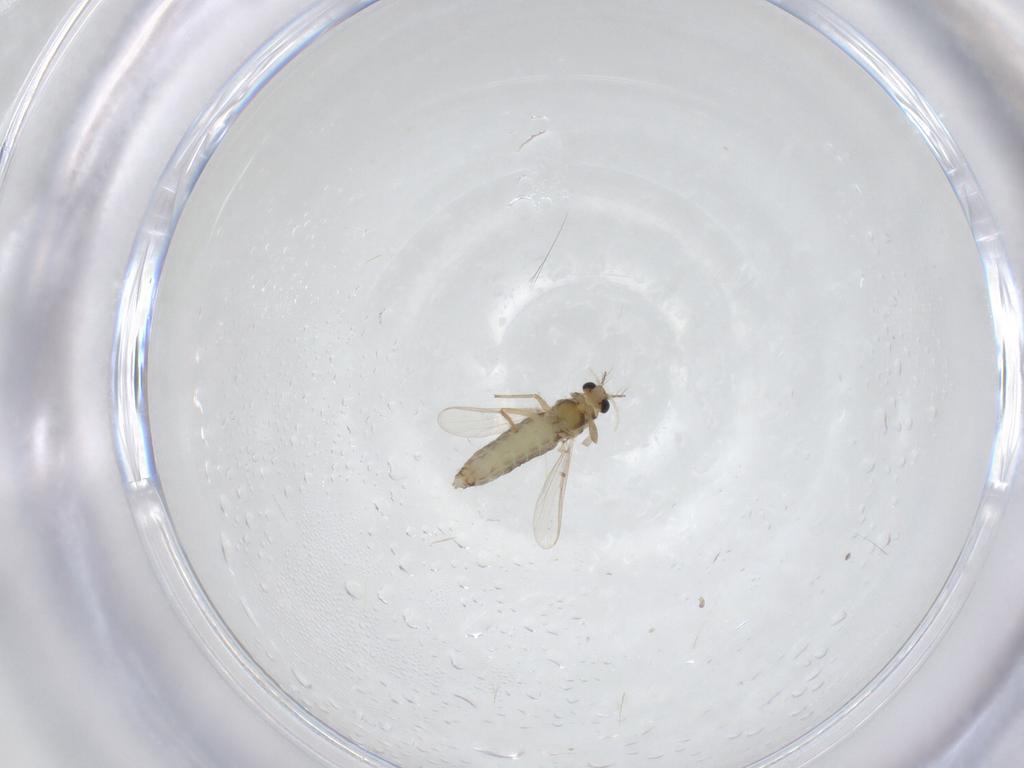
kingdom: Animalia
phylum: Arthropoda
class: Insecta
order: Diptera
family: Chironomidae
